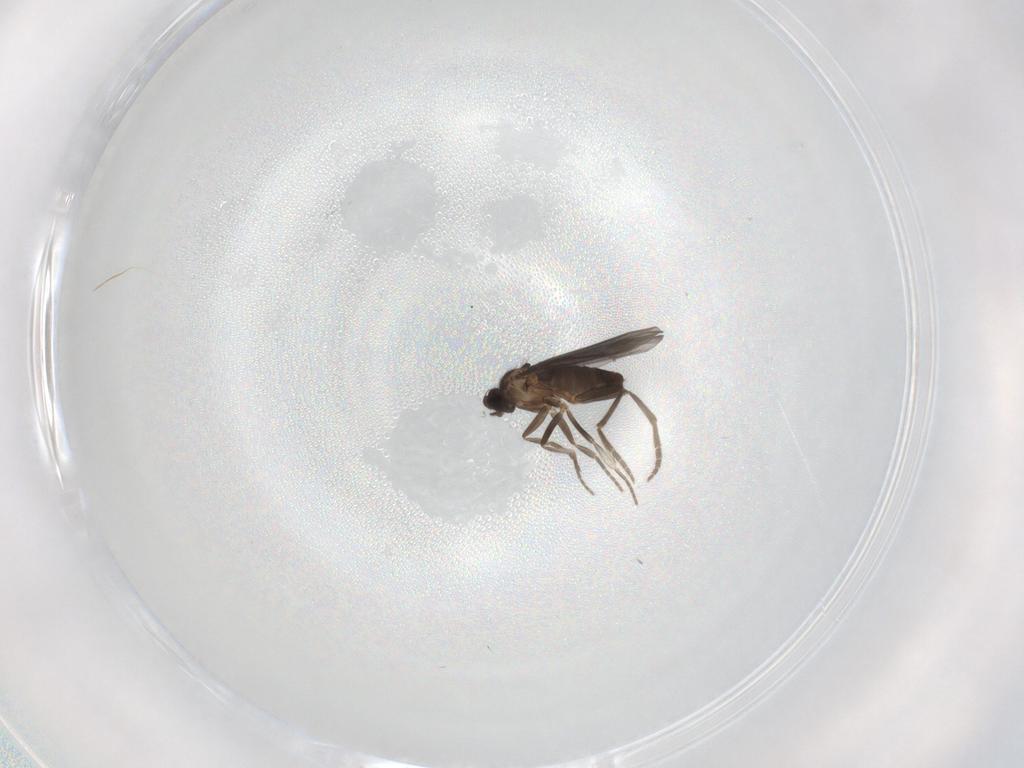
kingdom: Animalia
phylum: Arthropoda
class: Insecta
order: Diptera
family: Phoridae
